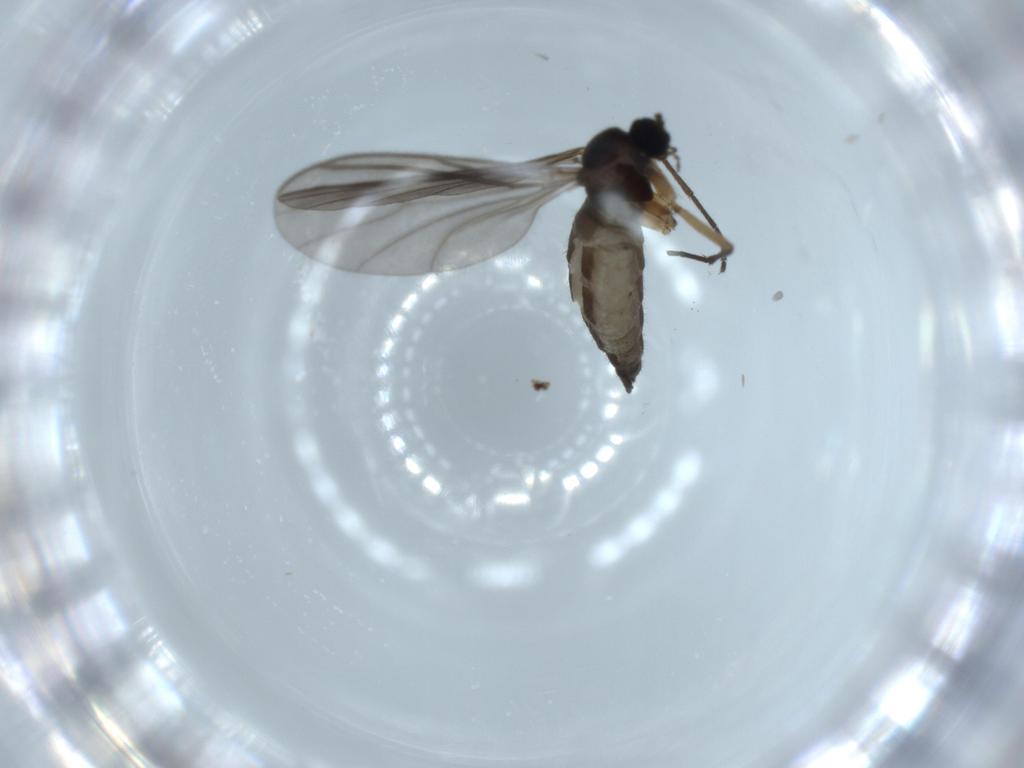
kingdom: Animalia
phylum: Arthropoda
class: Insecta
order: Diptera
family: Sciaridae
